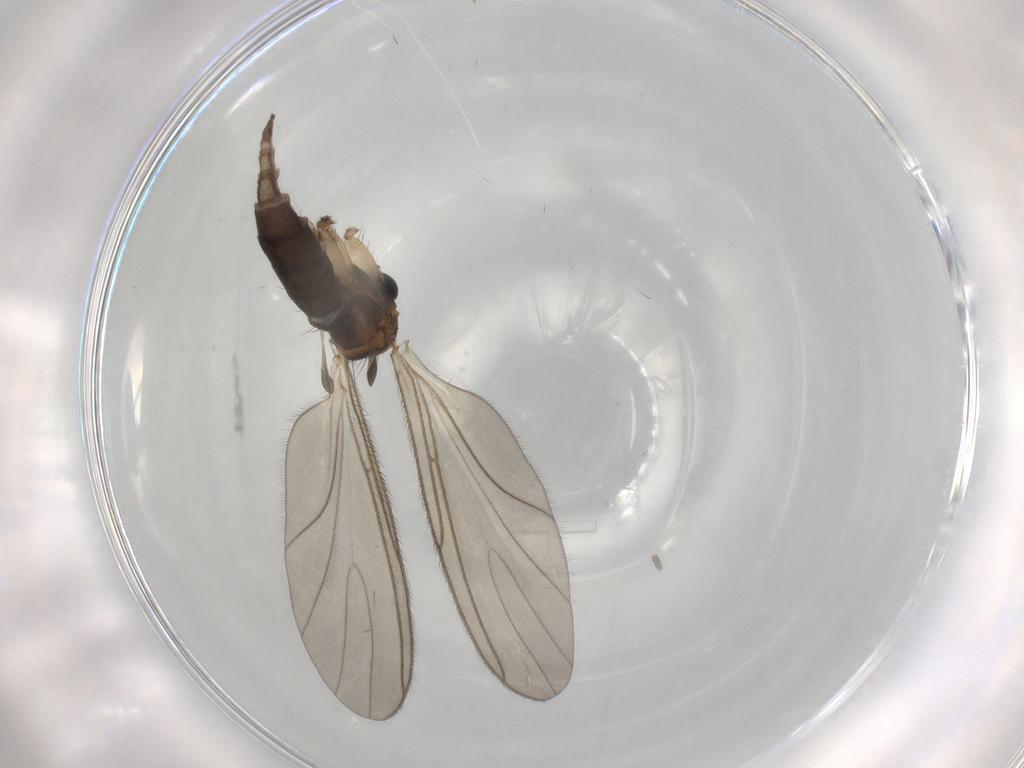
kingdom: Animalia
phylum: Arthropoda
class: Insecta
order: Diptera
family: Sciaridae
